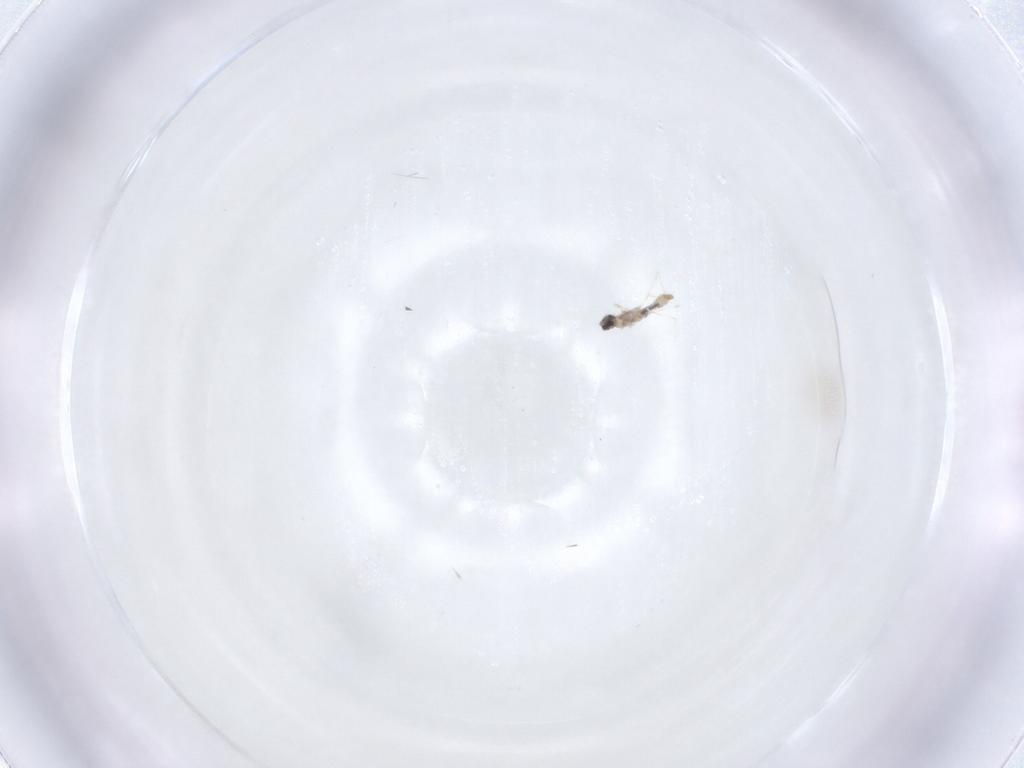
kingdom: Animalia
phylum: Arthropoda
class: Insecta
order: Diptera
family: Cecidomyiidae
